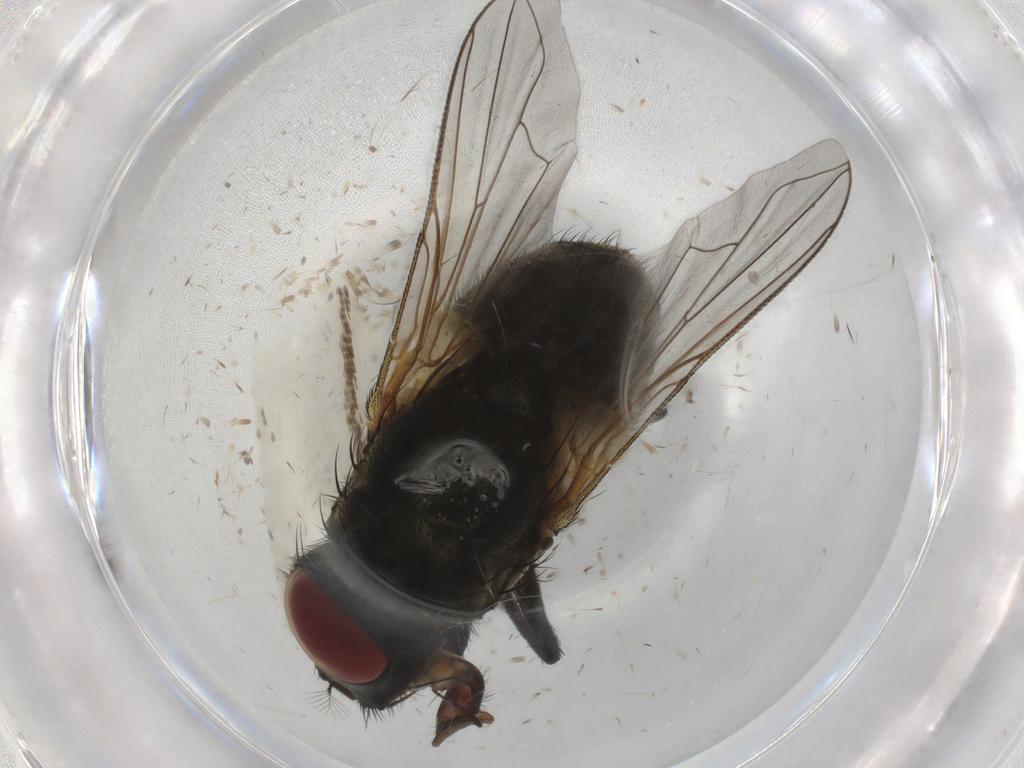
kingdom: Animalia
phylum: Arthropoda
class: Insecta
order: Diptera
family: Muscidae
